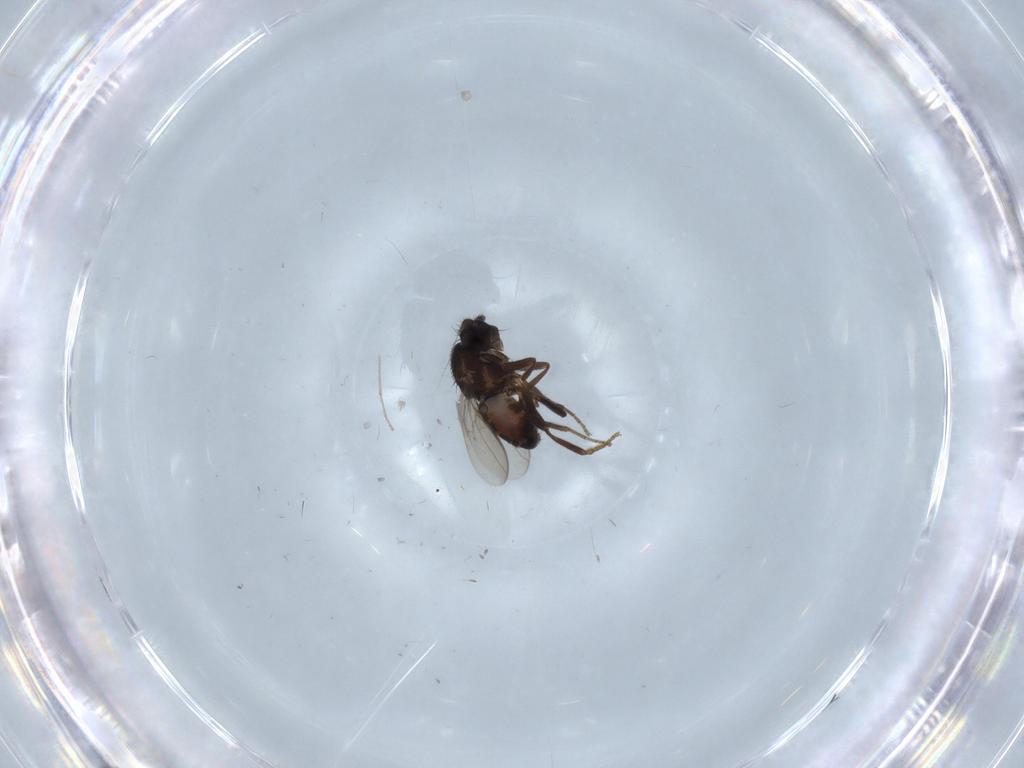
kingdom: Animalia
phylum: Arthropoda
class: Insecta
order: Diptera
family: Sphaeroceridae
